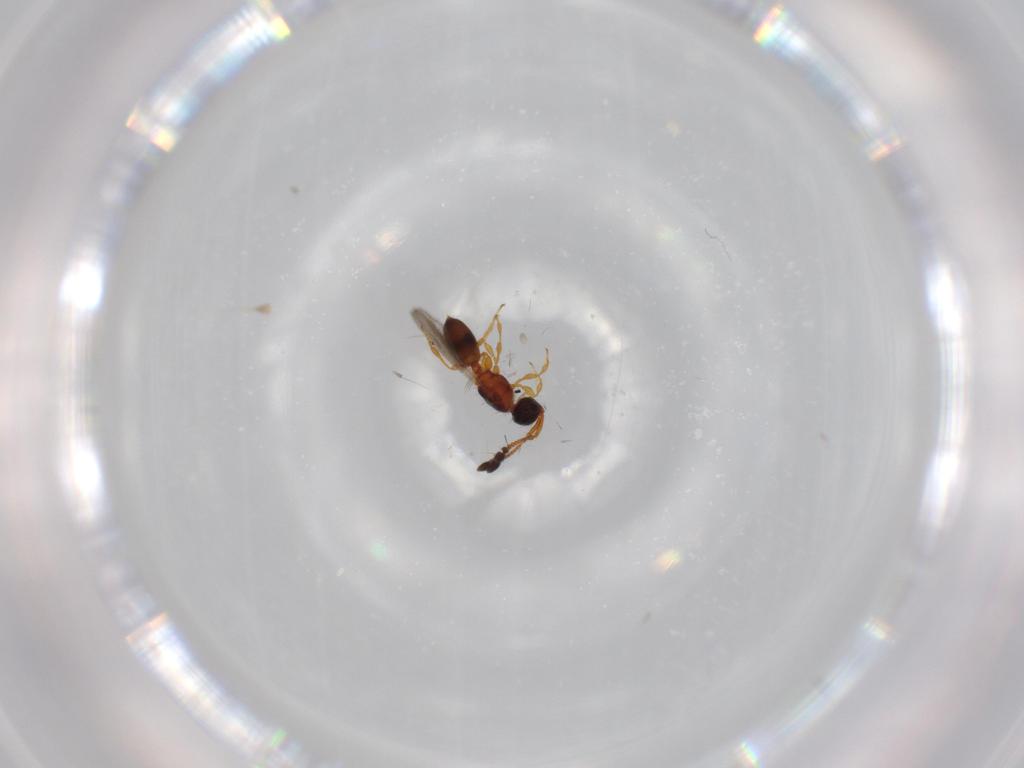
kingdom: Animalia
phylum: Arthropoda
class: Insecta
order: Hymenoptera
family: Diapriidae
